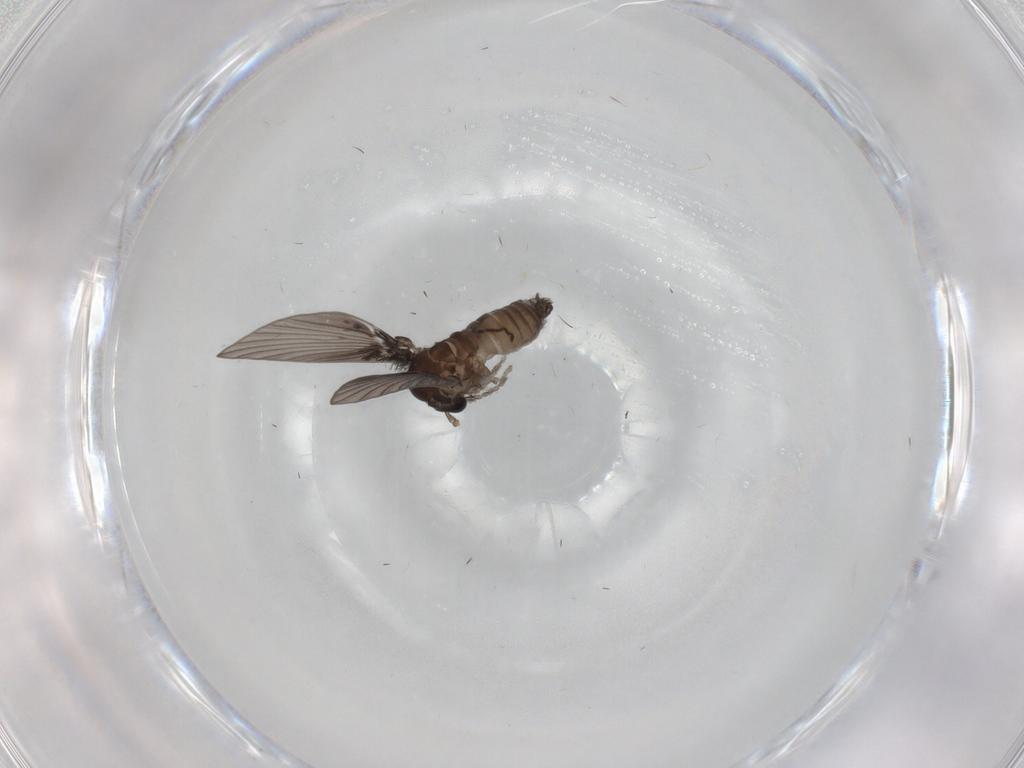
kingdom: Animalia
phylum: Arthropoda
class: Insecta
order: Diptera
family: Psychodidae
